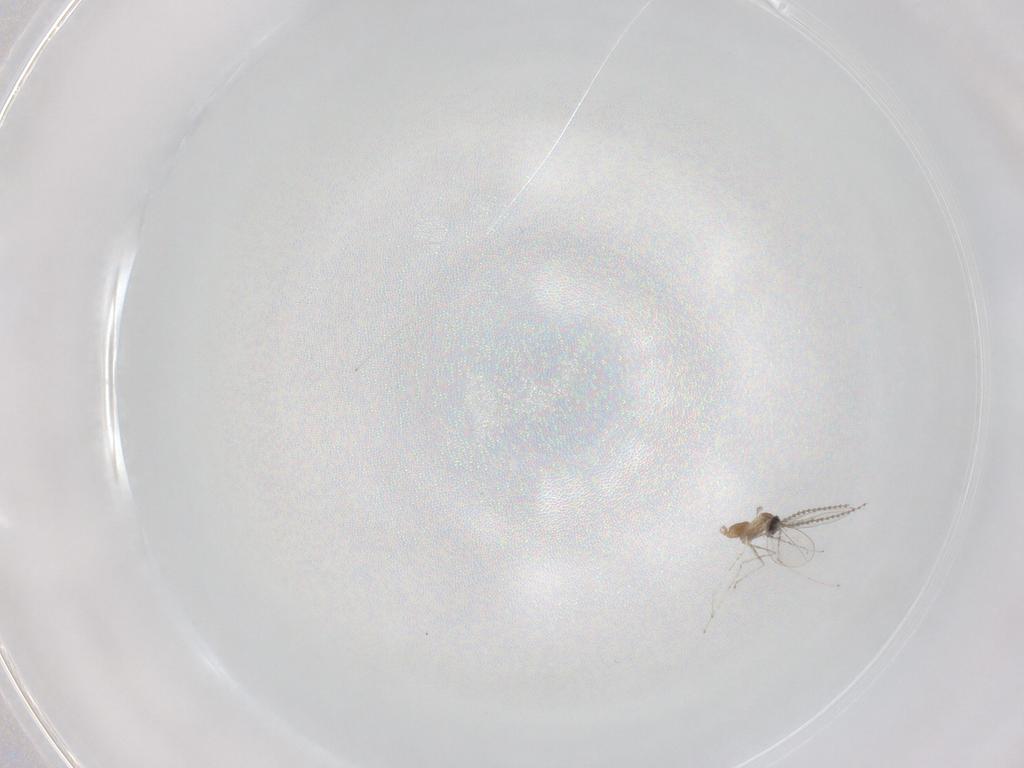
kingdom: Animalia
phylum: Arthropoda
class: Insecta
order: Diptera
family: Cecidomyiidae
